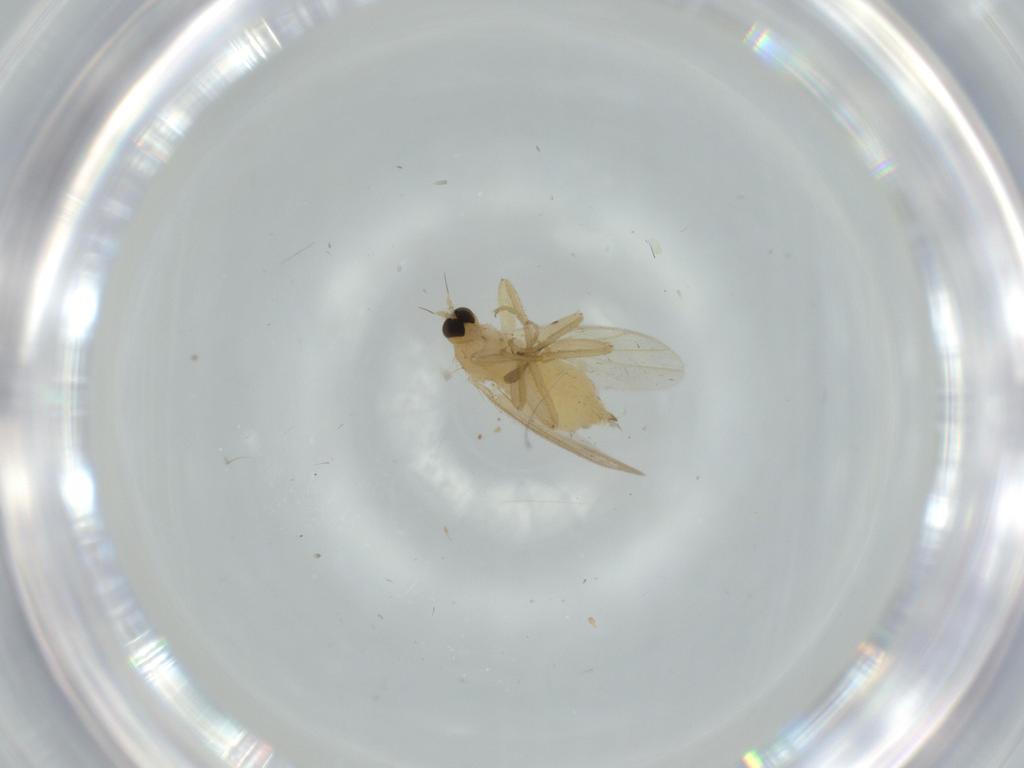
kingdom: Animalia
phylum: Arthropoda
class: Insecta
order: Diptera
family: Hybotidae
